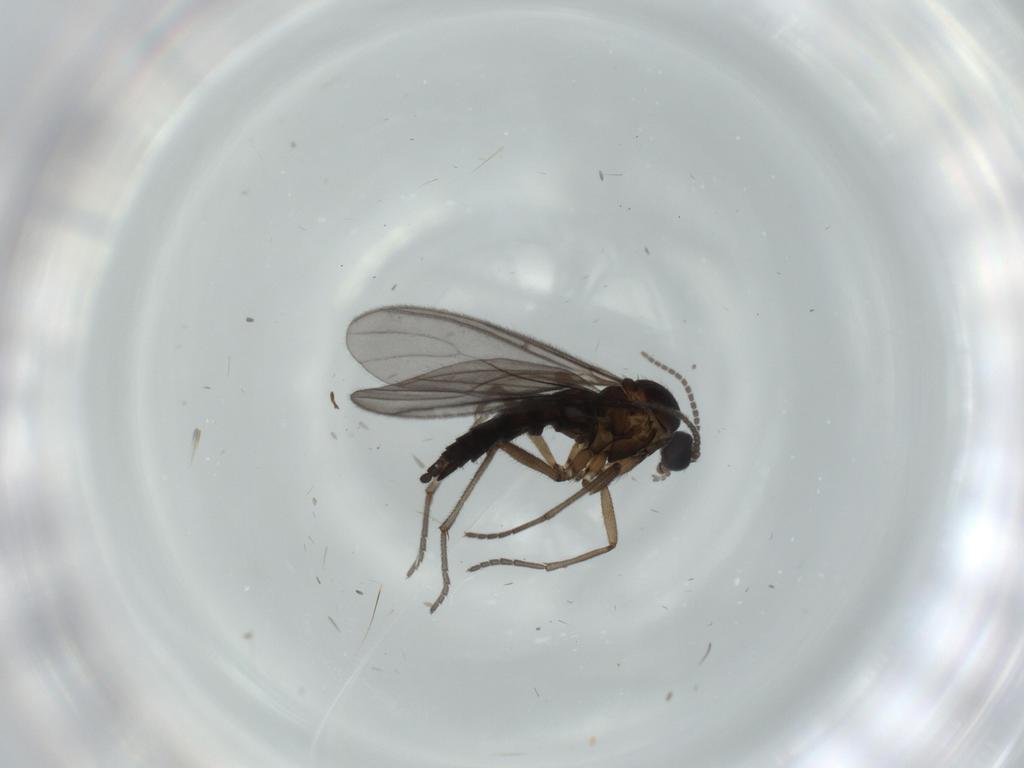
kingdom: Animalia
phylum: Arthropoda
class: Insecta
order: Diptera
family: Sciaridae
